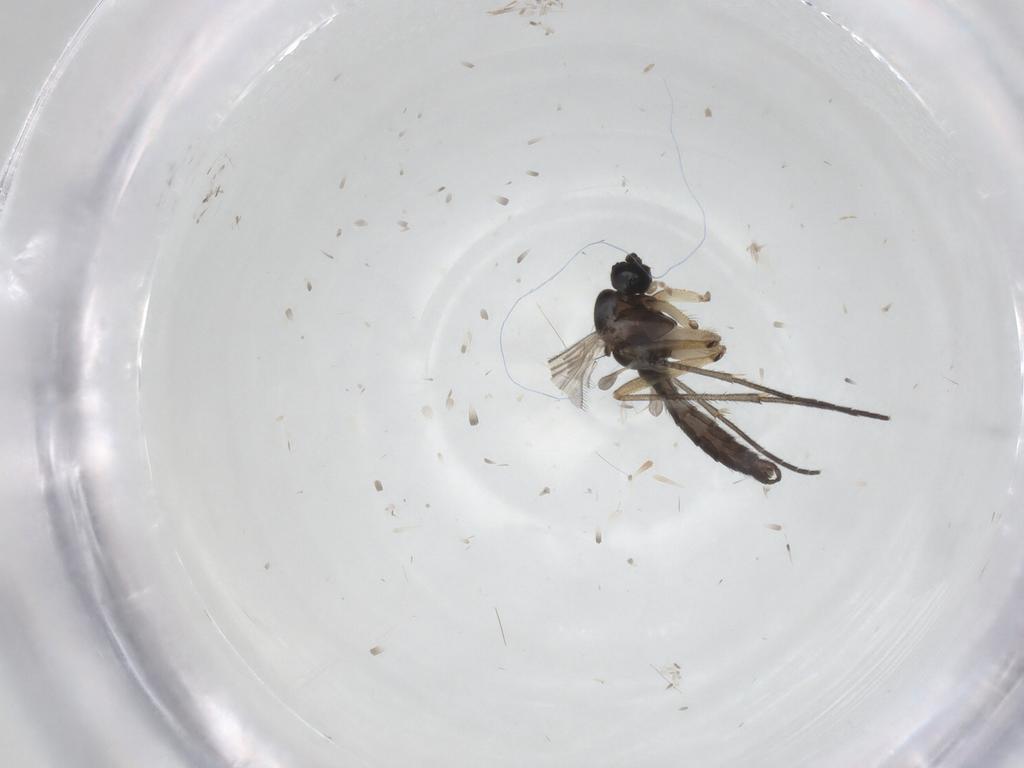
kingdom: Animalia
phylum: Arthropoda
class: Insecta
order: Diptera
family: Sciaridae
